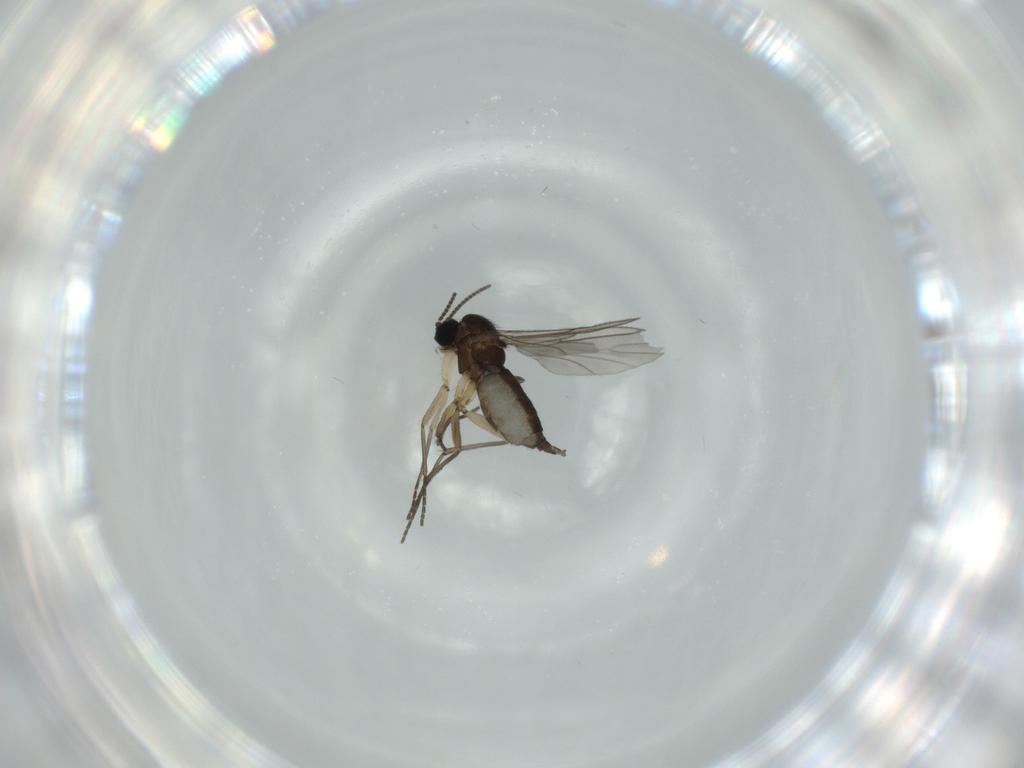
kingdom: Animalia
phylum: Arthropoda
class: Insecta
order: Diptera
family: Sciaridae
